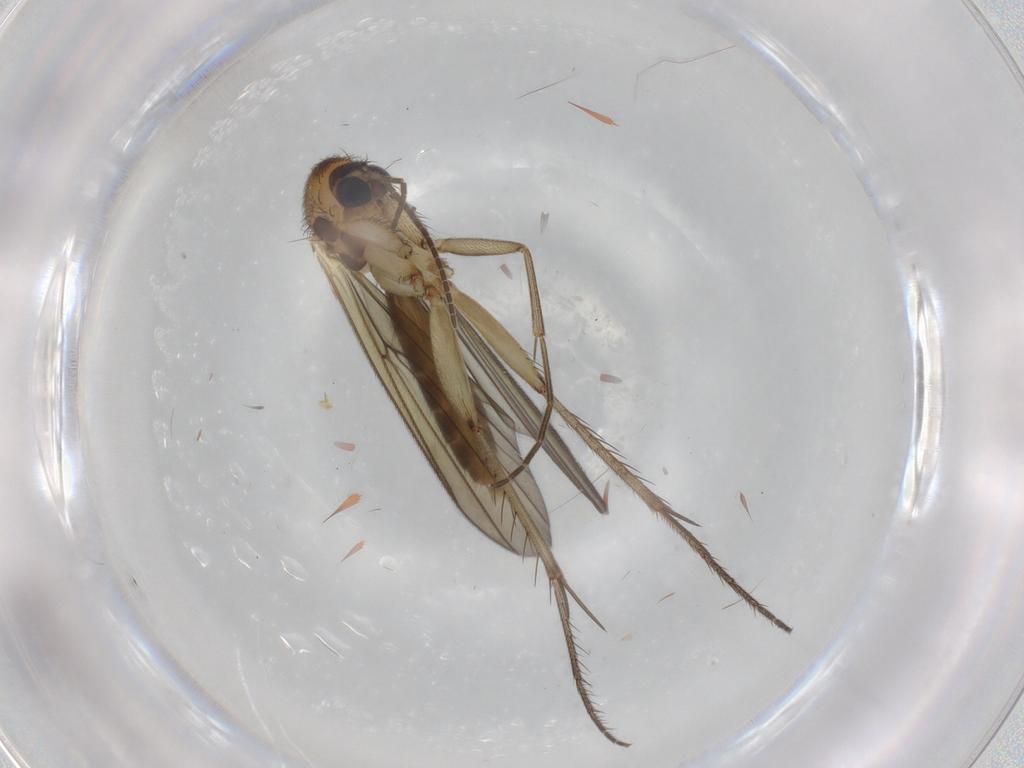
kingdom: Animalia
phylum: Arthropoda
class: Insecta
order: Diptera
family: Mycetophilidae
